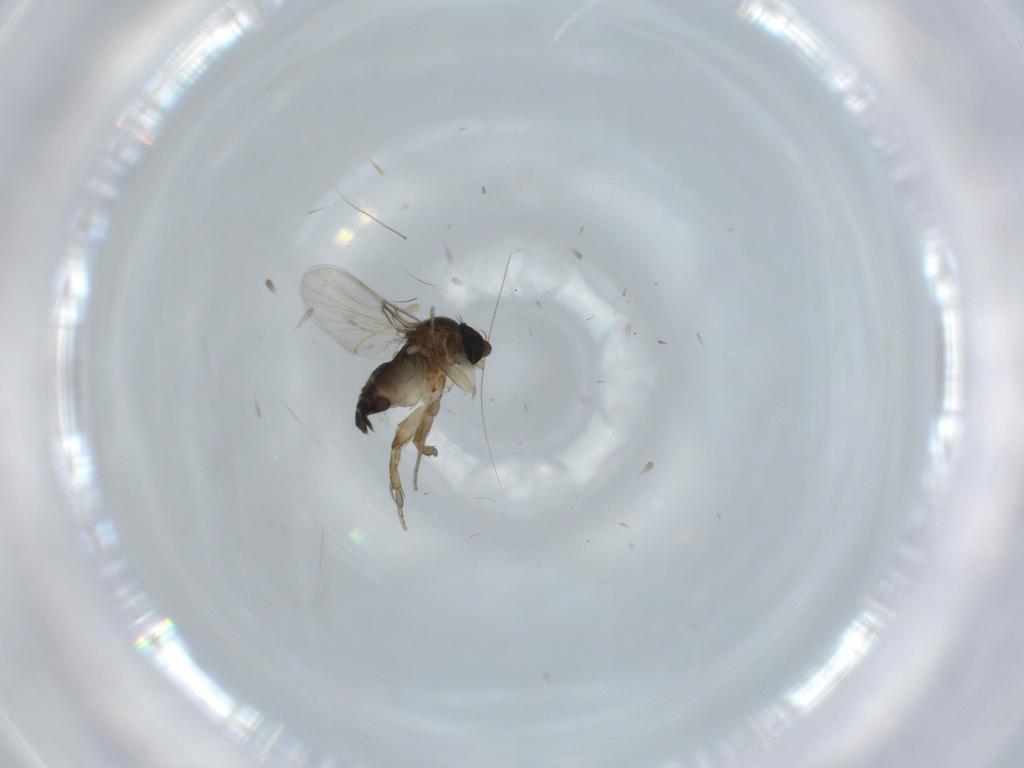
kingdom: Animalia
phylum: Arthropoda
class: Insecta
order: Diptera
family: Phoridae
